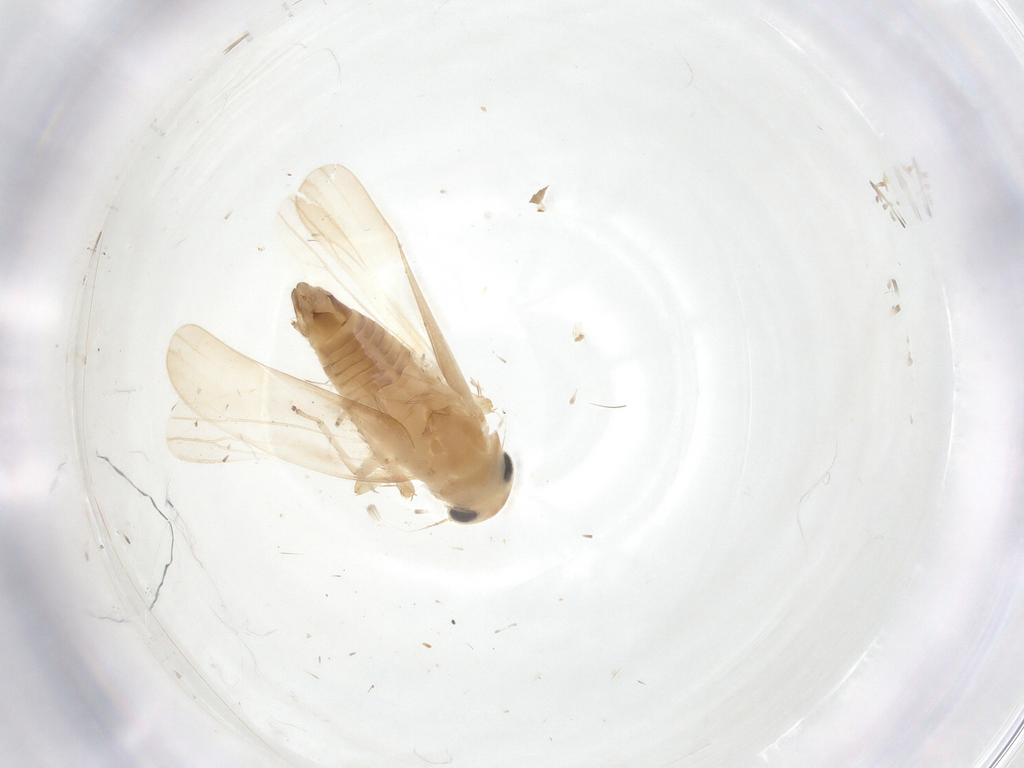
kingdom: Animalia
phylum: Arthropoda
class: Insecta
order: Hemiptera
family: Cicadellidae
